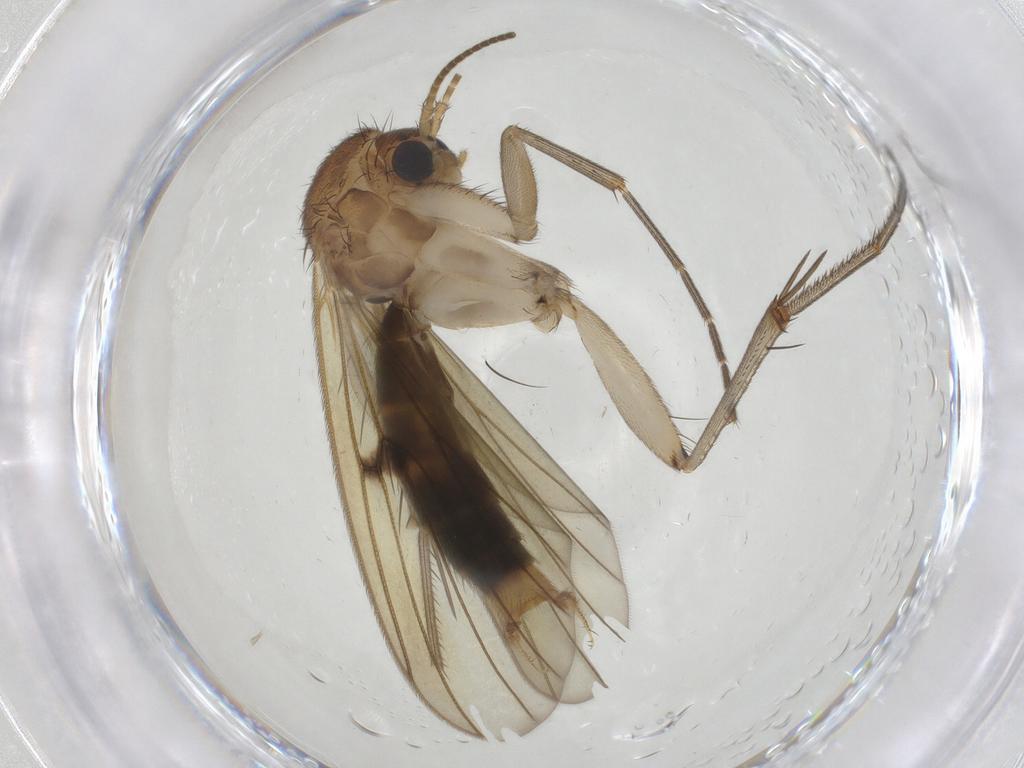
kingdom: Animalia
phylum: Arthropoda
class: Insecta
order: Diptera
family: Mycetophilidae
